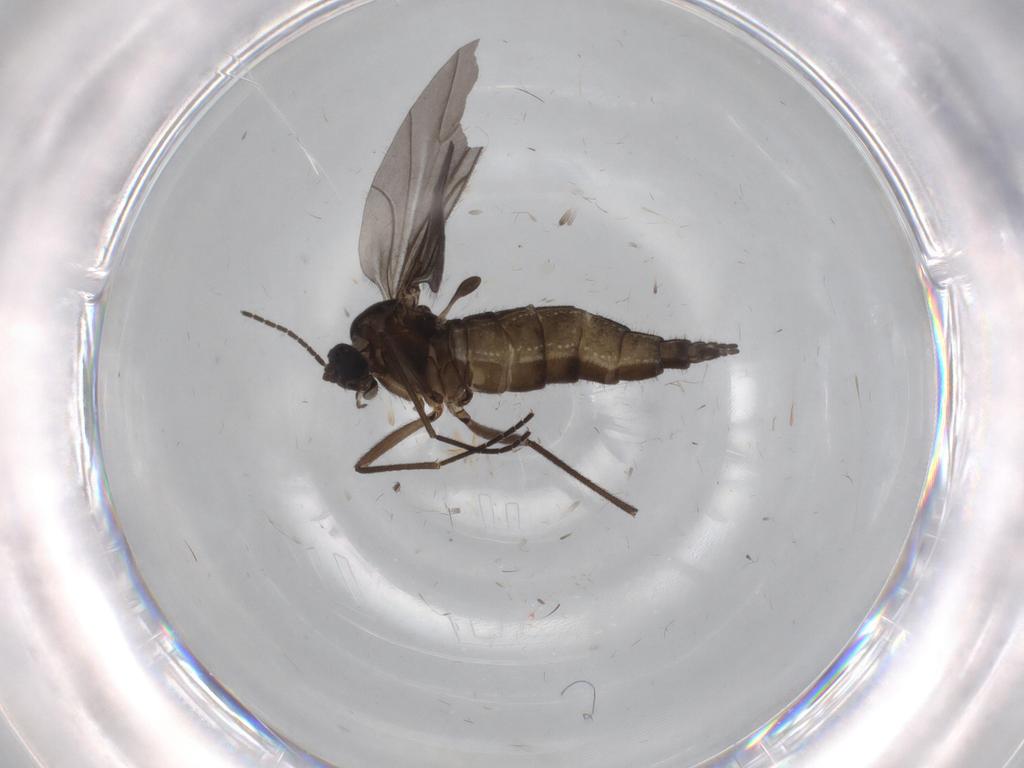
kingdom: Animalia
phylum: Arthropoda
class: Insecta
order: Diptera
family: Sciaridae
